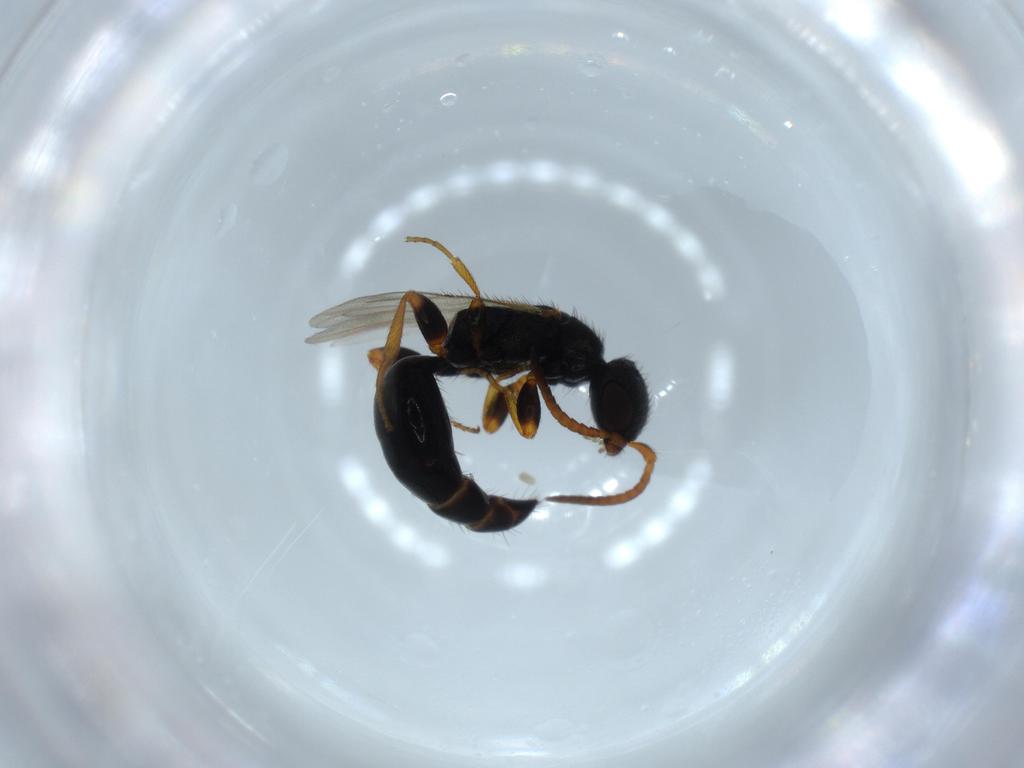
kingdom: Animalia
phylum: Arthropoda
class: Insecta
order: Hymenoptera
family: Bethylidae
